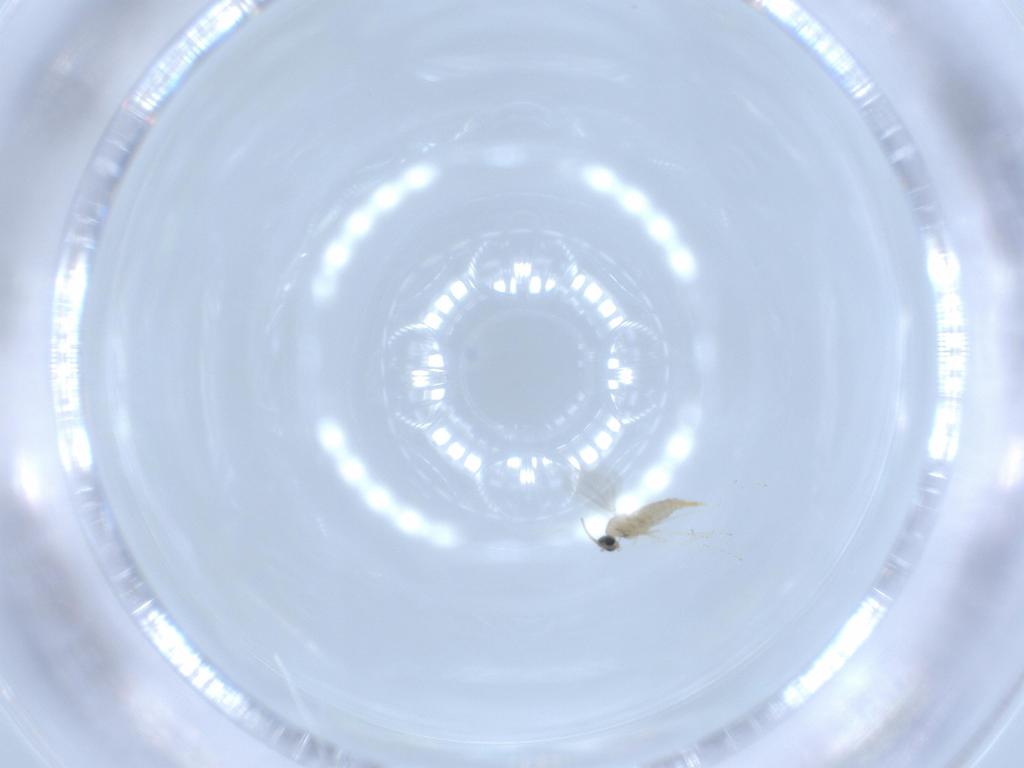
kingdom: Animalia
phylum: Arthropoda
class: Insecta
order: Diptera
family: Cecidomyiidae
